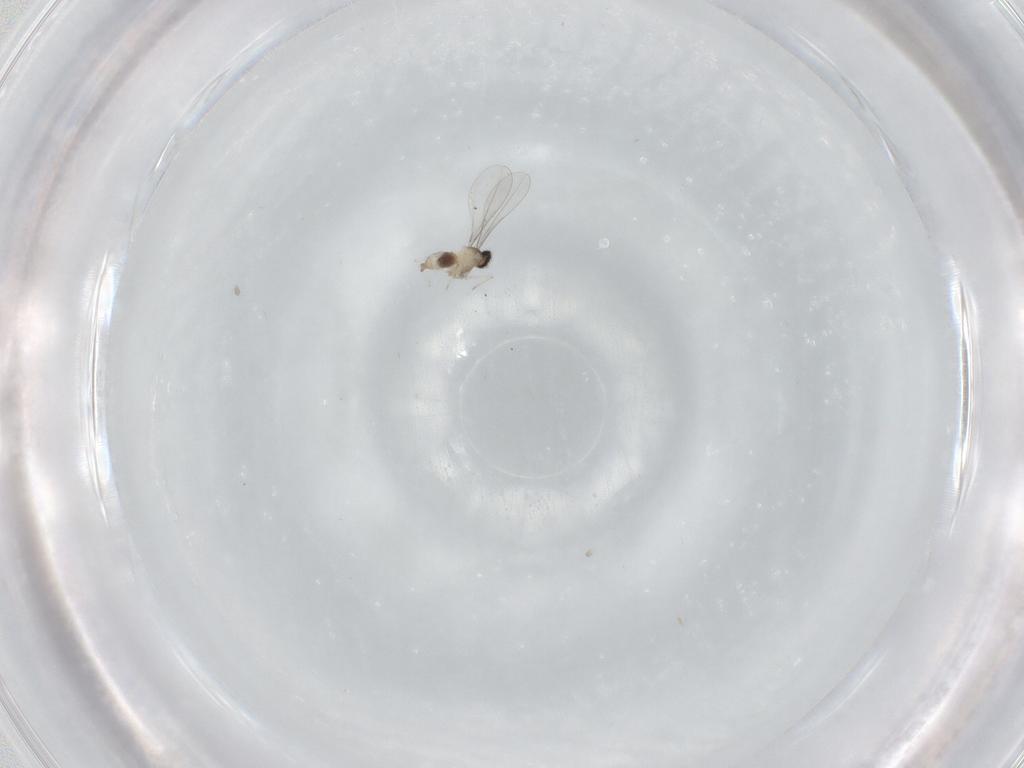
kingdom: Animalia
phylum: Arthropoda
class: Insecta
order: Diptera
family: Cecidomyiidae
